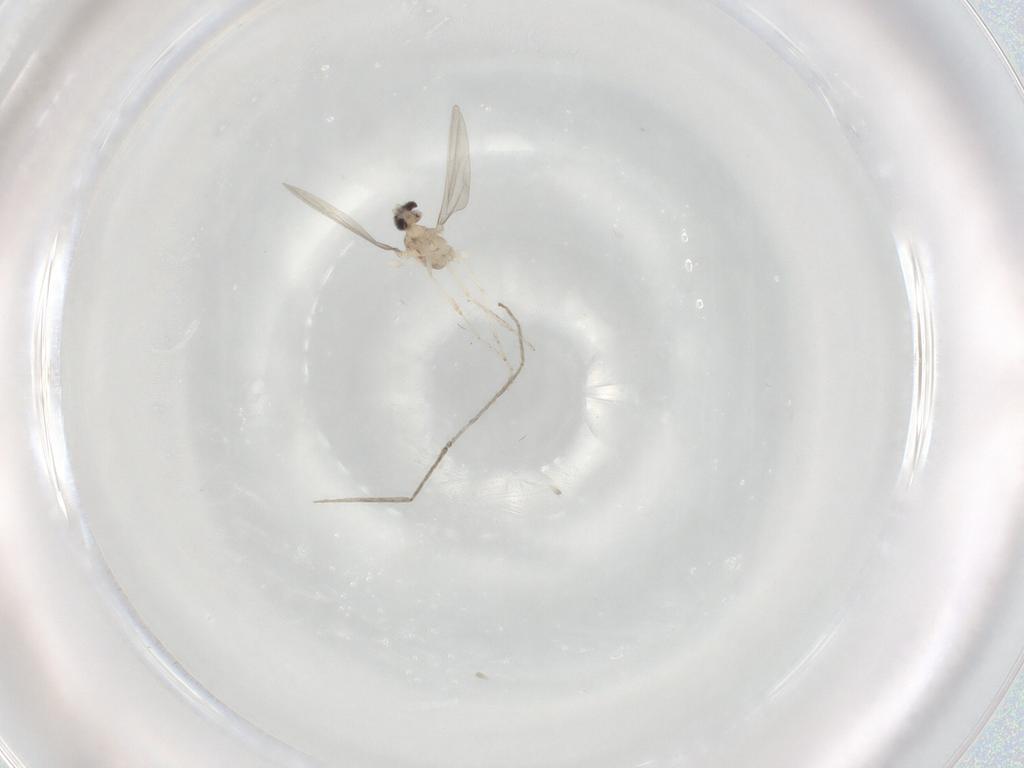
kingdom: Animalia
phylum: Arthropoda
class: Insecta
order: Diptera
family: Cecidomyiidae
